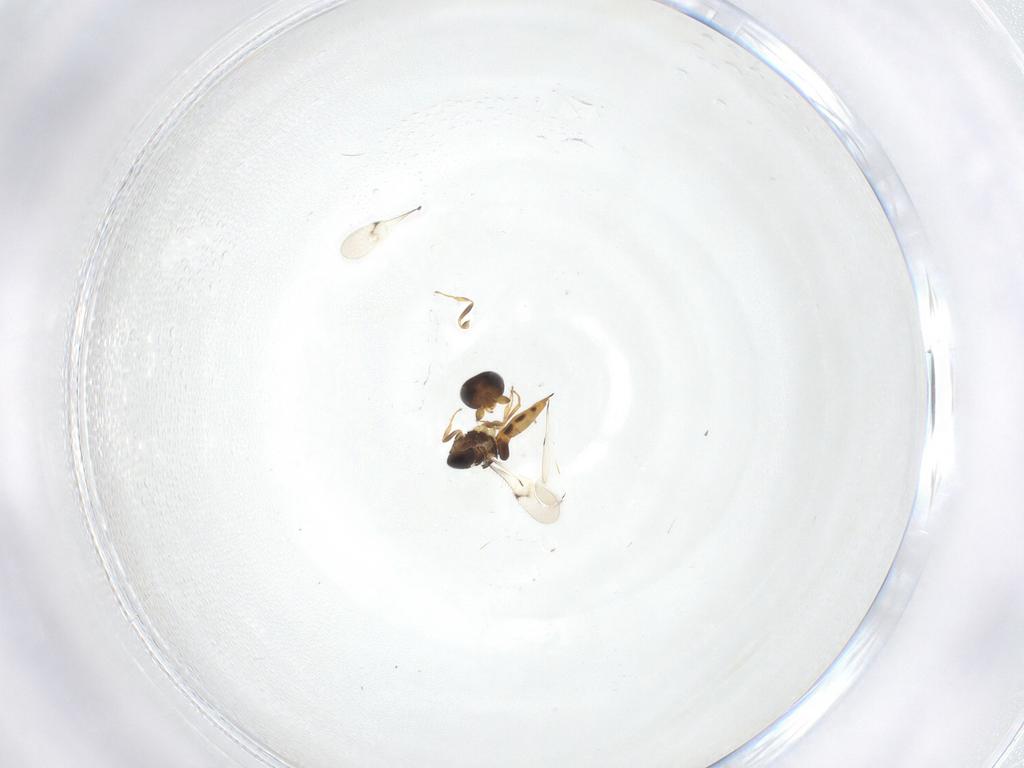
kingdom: Animalia
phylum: Arthropoda
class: Insecta
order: Hymenoptera
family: Scelionidae
